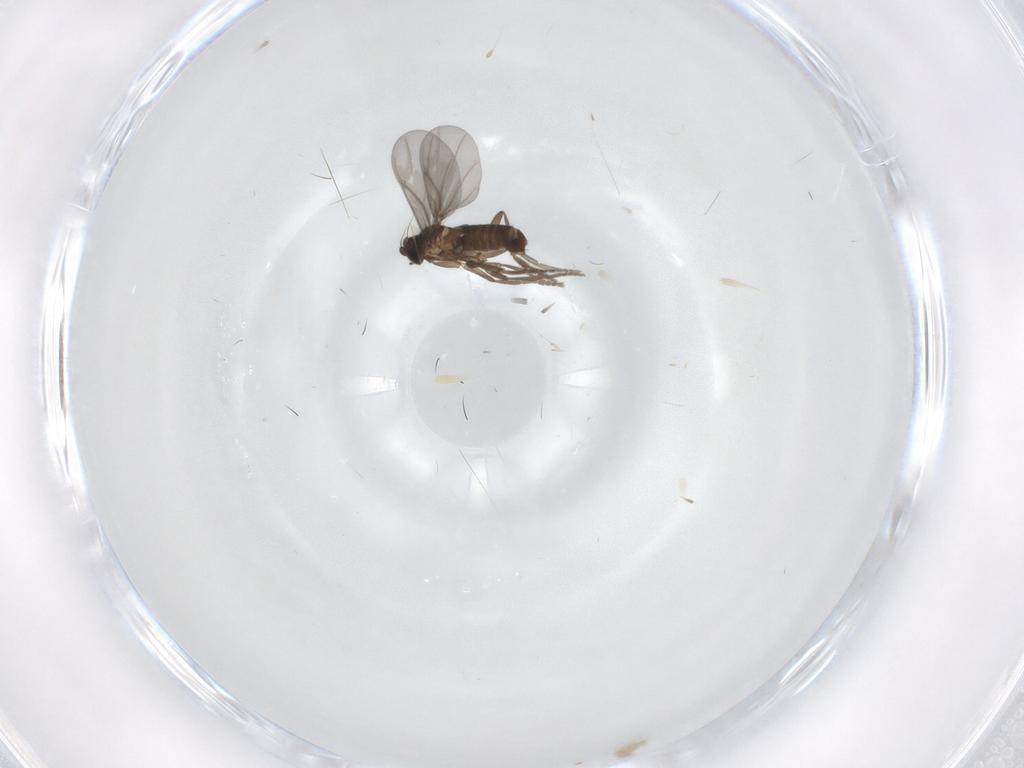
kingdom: Animalia
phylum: Arthropoda
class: Insecta
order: Diptera
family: Phoridae
